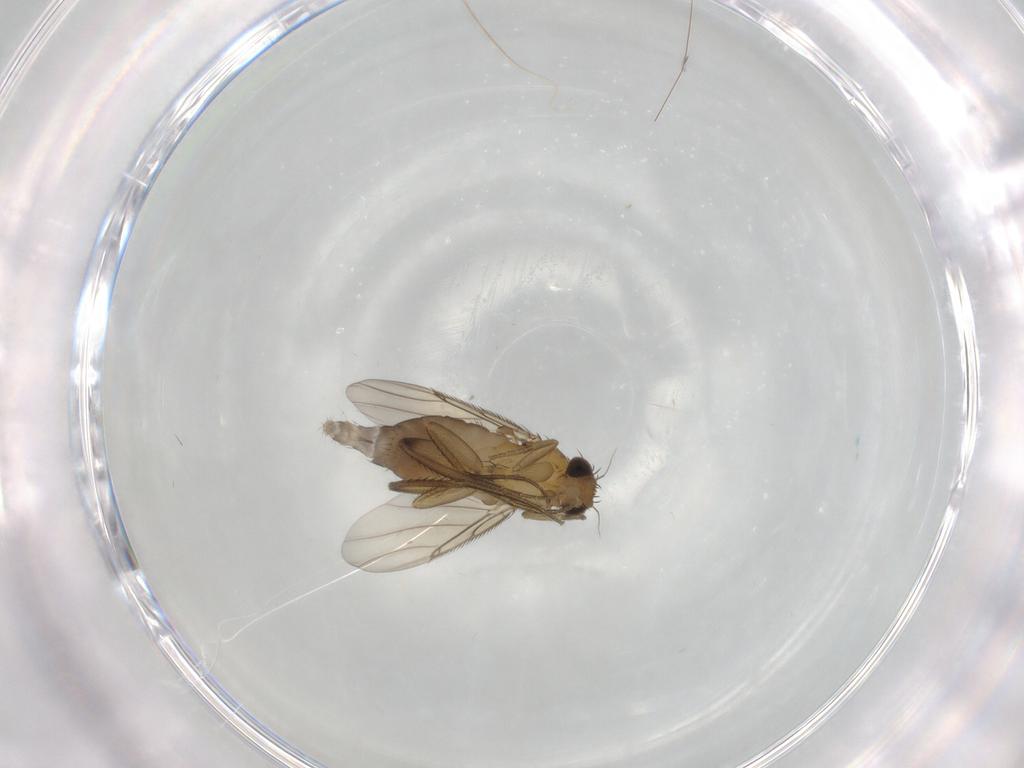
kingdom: Animalia
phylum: Arthropoda
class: Insecta
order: Diptera
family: Phoridae
